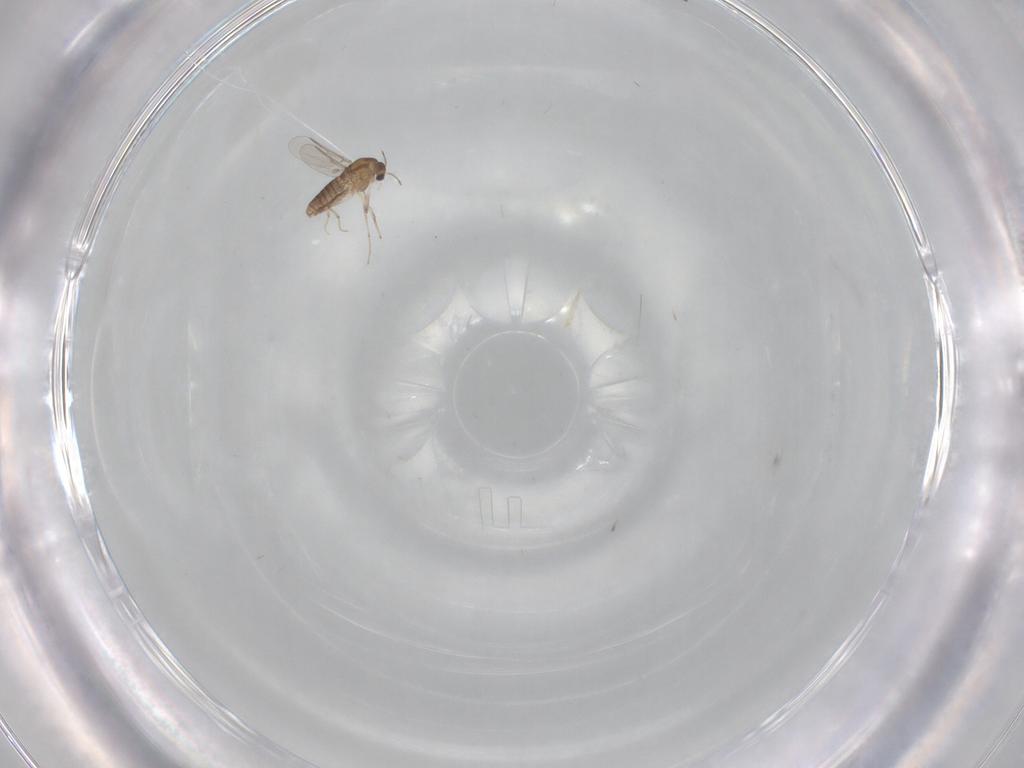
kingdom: Animalia
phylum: Arthropoda
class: Insecta
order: Diptera
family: Chironomidae
